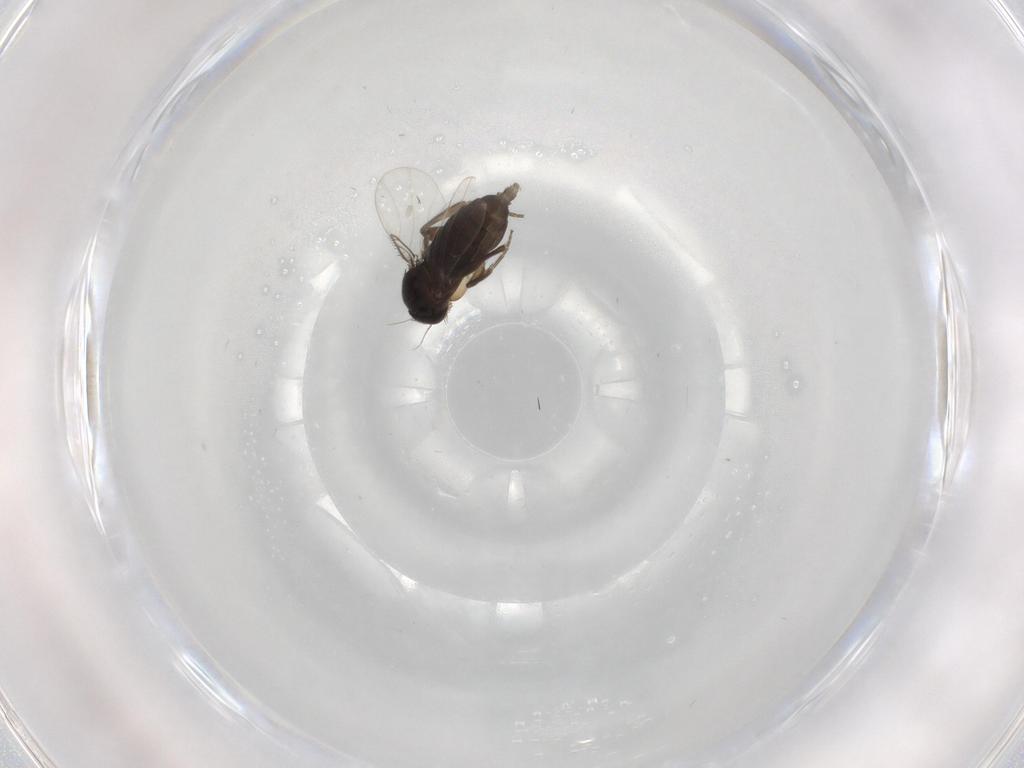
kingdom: Animalia
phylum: Arthropoda
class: Insecta
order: Diptera
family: Phoridae
